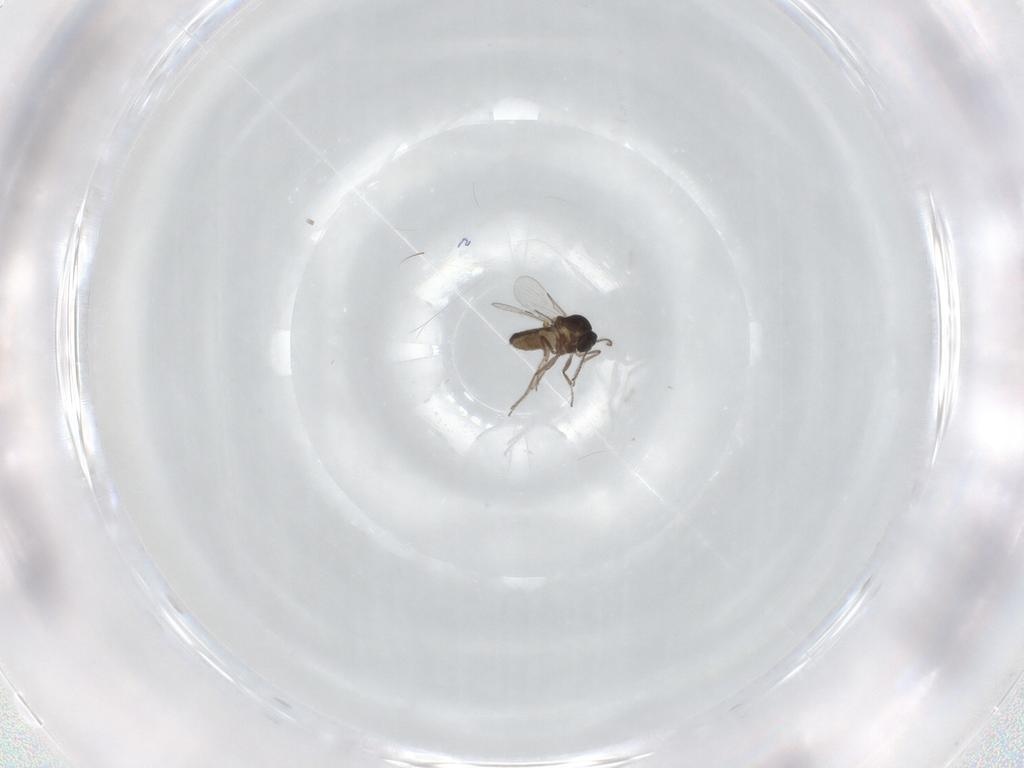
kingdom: Animalia
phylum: Arthropoda
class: Insecta
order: Diptera
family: Ceratopogonidae
